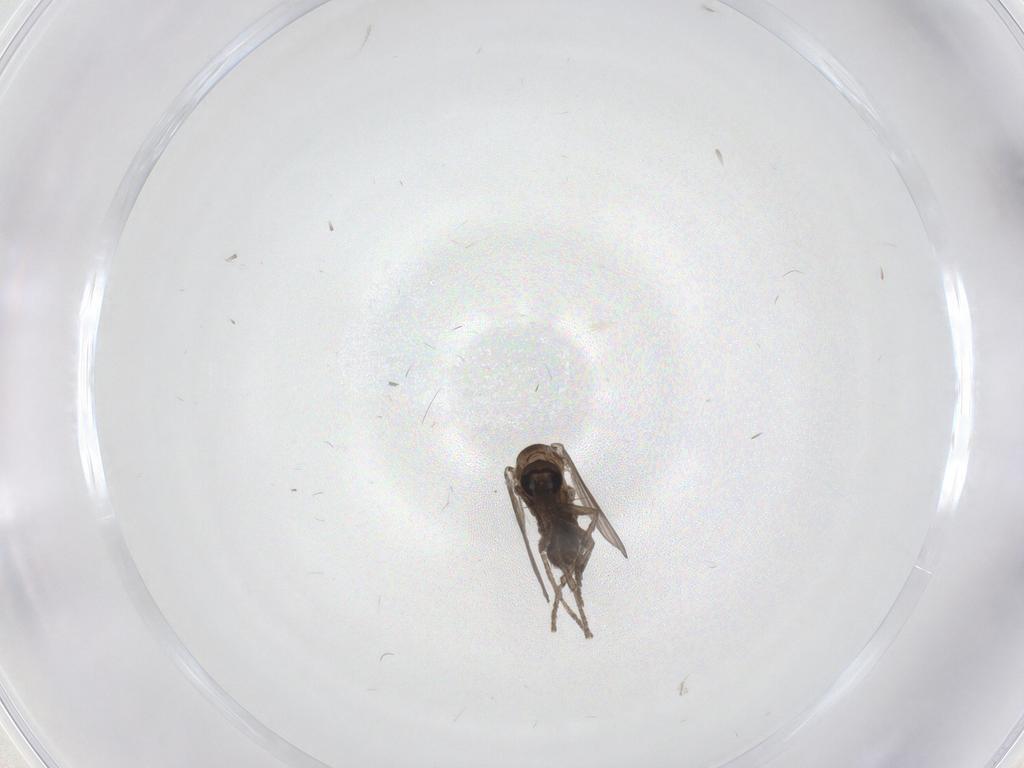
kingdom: Animalia
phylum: Arthropoda
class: Insecta
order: Diptera
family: Psychodidae
